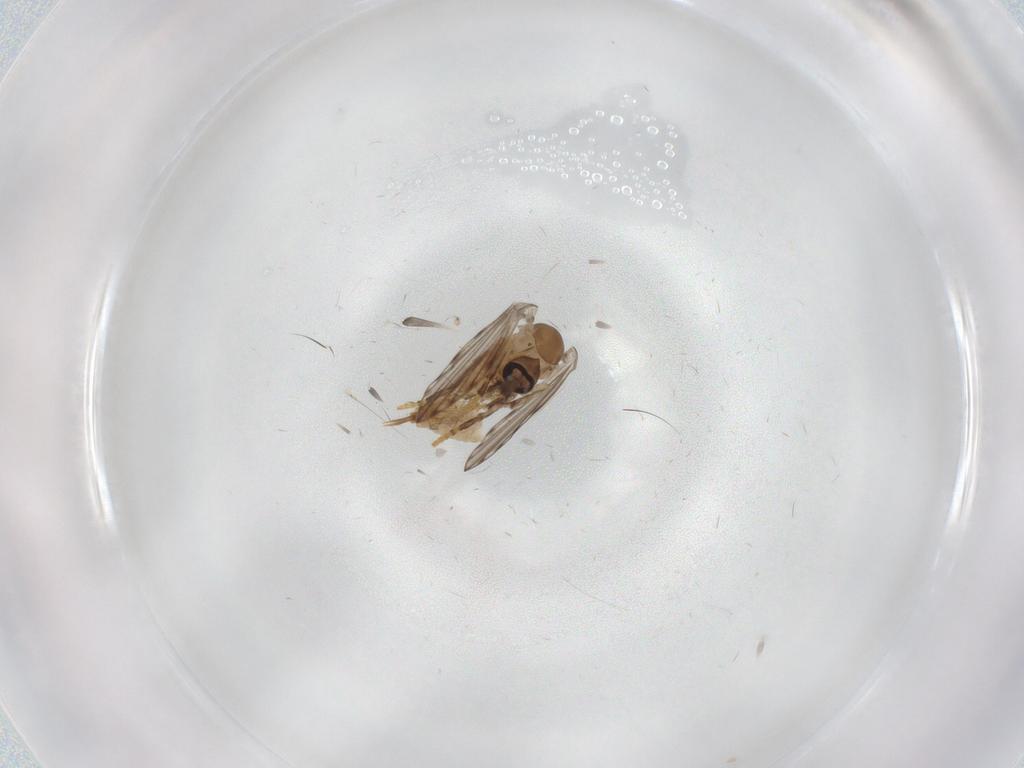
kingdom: Animalia
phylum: Arthropoda
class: Insecta
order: Diptera
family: Psychodidae
